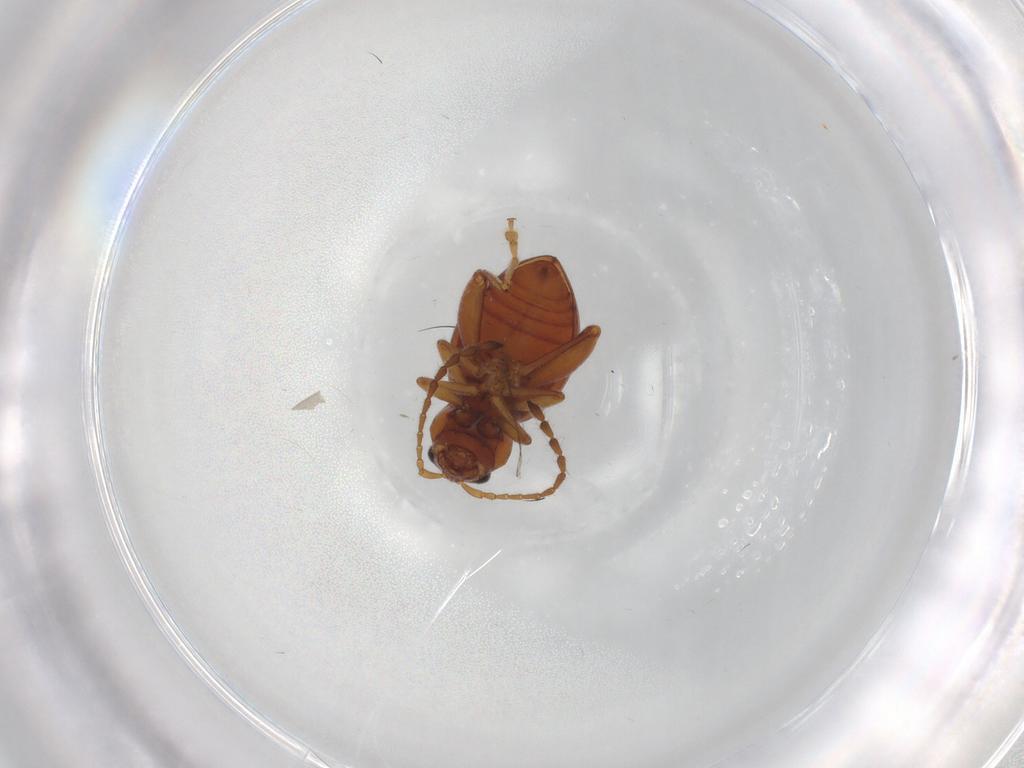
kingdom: Animalia
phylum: Arthropoda
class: Insecta
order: Coleoptera
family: Chrysomelidae
